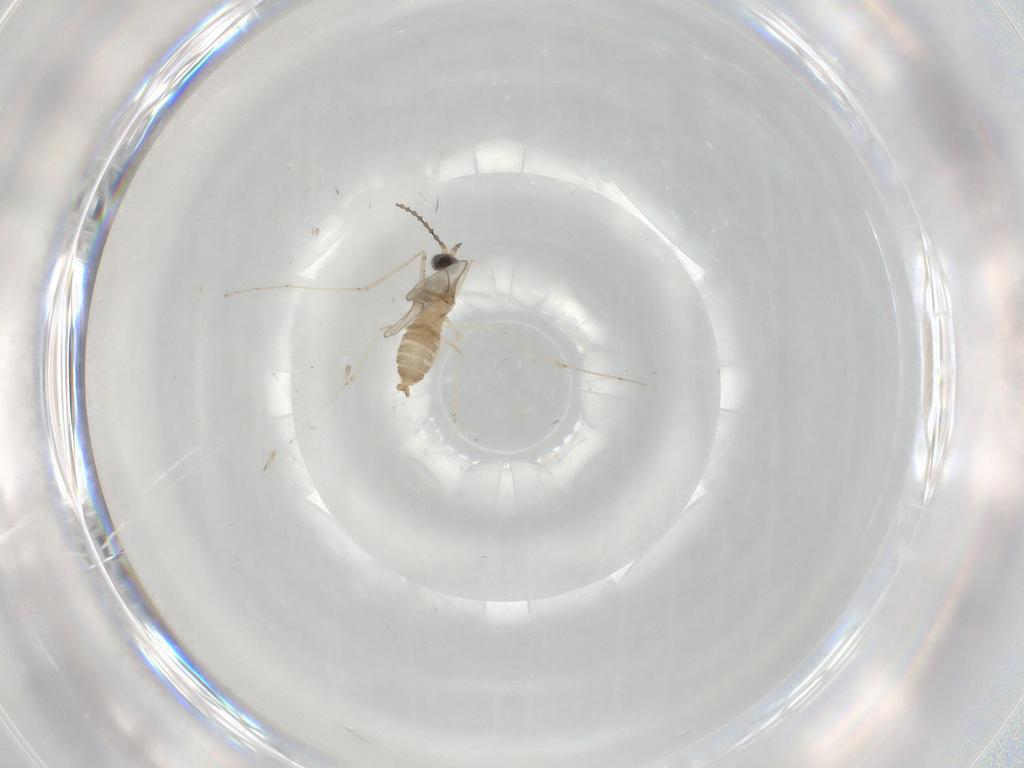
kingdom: Animalia
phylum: Arthropoda
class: Insecta
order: Diptera
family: Cecidomyiidae
